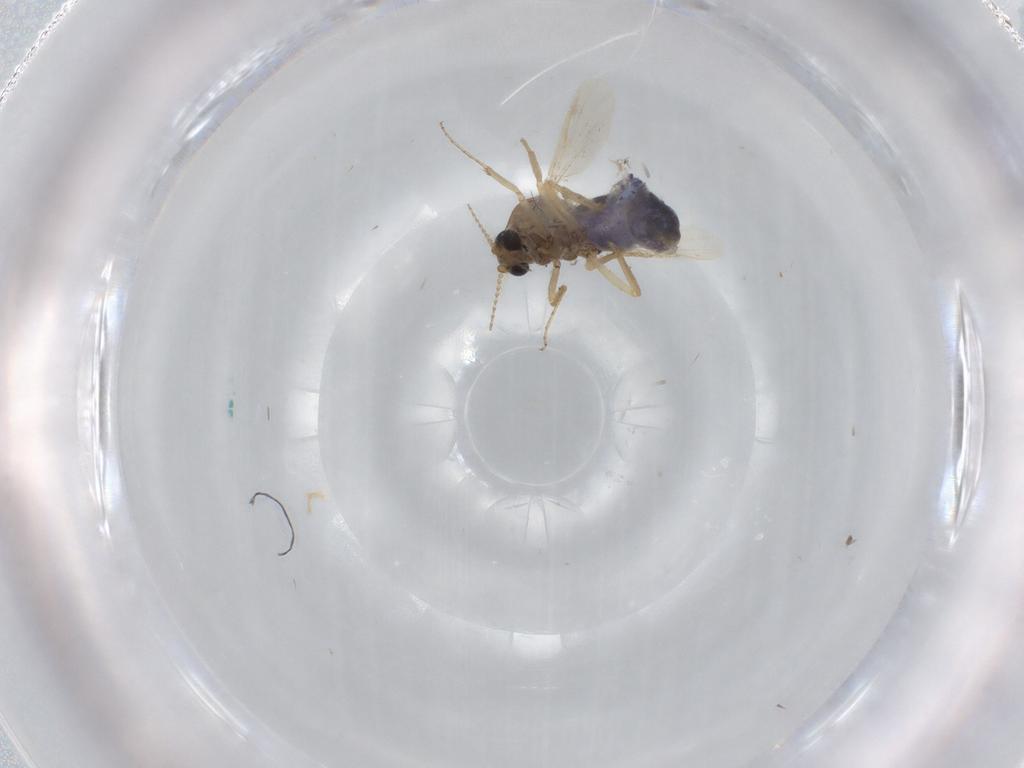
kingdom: Animalia
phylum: Arthropoda
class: Insecta
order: Diptera
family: Ceratopogonidae
